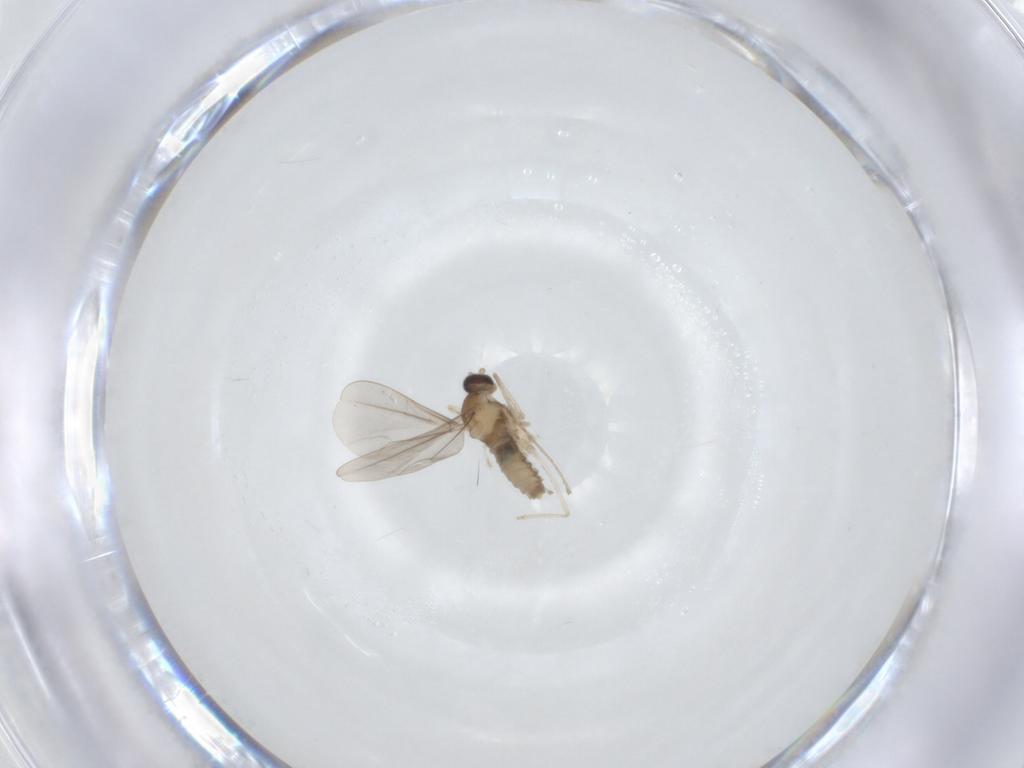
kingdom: Animalia
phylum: Arthropoda
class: Insecta
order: Diptera
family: Cecidomyiidae
